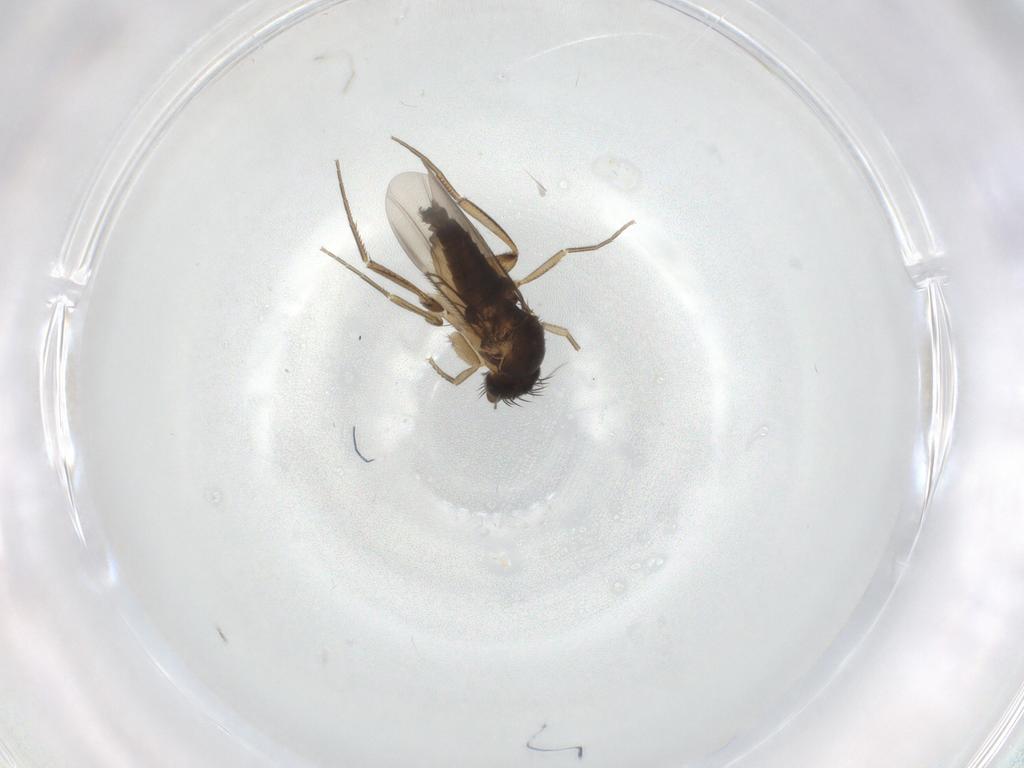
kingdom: Animalia
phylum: Arthropoda
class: Insecta
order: Diptera
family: Phoridae
